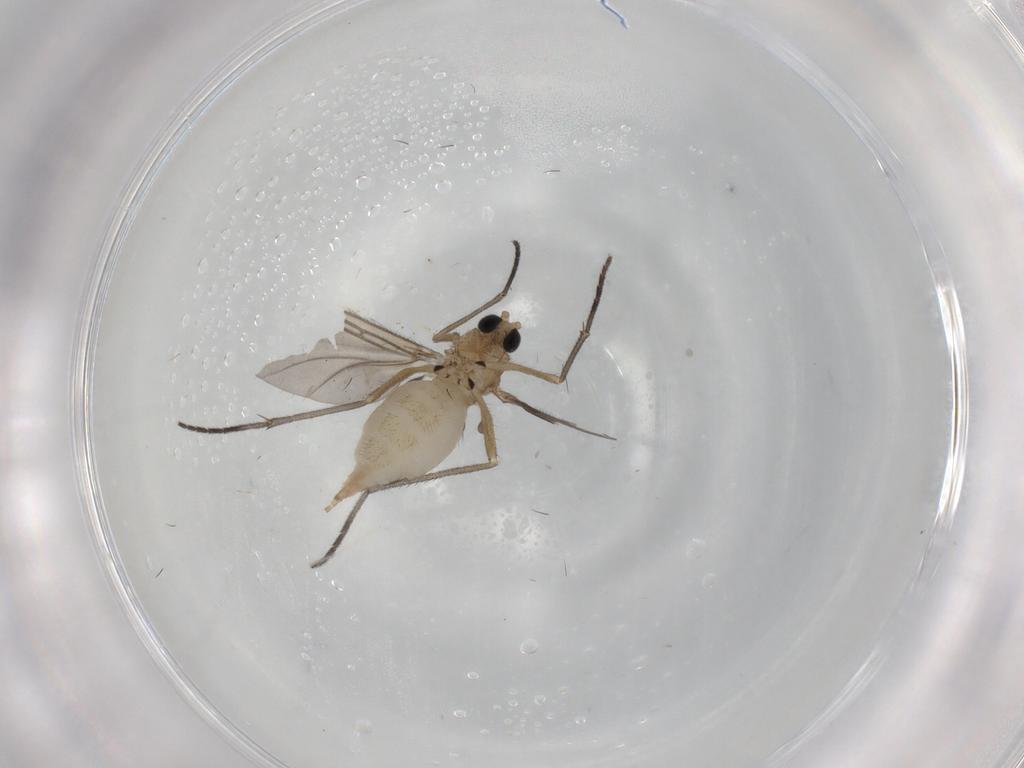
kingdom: Animalia
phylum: Arthropoda
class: Insecta
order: Diptera
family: Sciaridae
